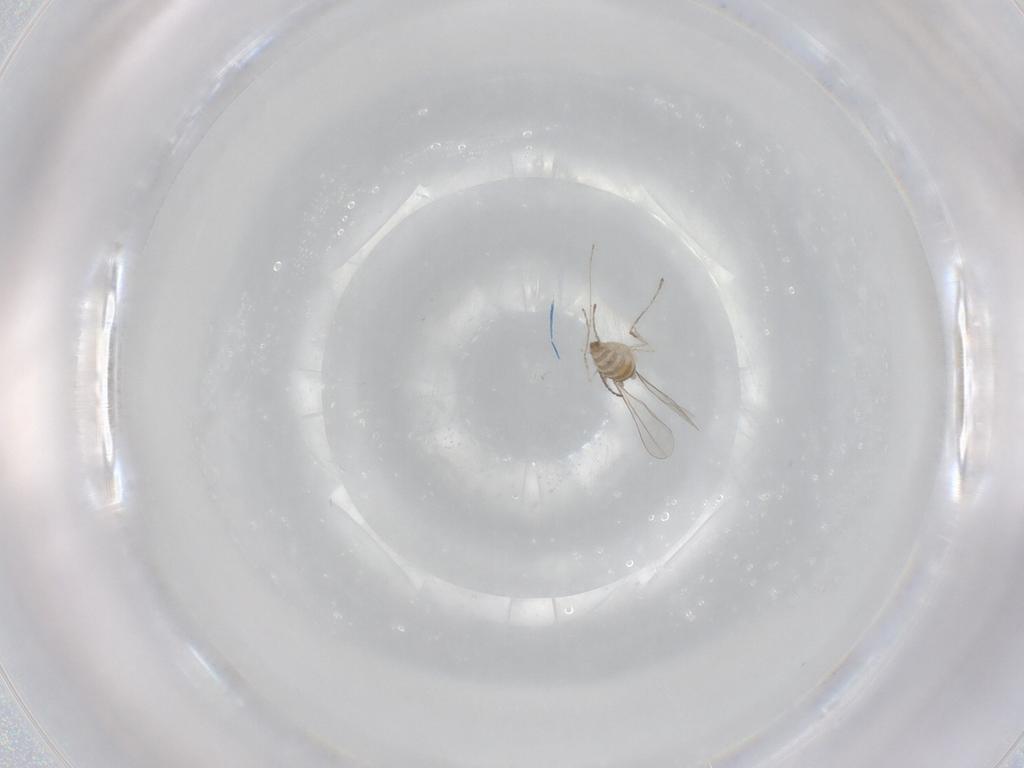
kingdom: Animalia
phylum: Arthropoda
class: Insecta
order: Diptera
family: Cecidomyiidae
